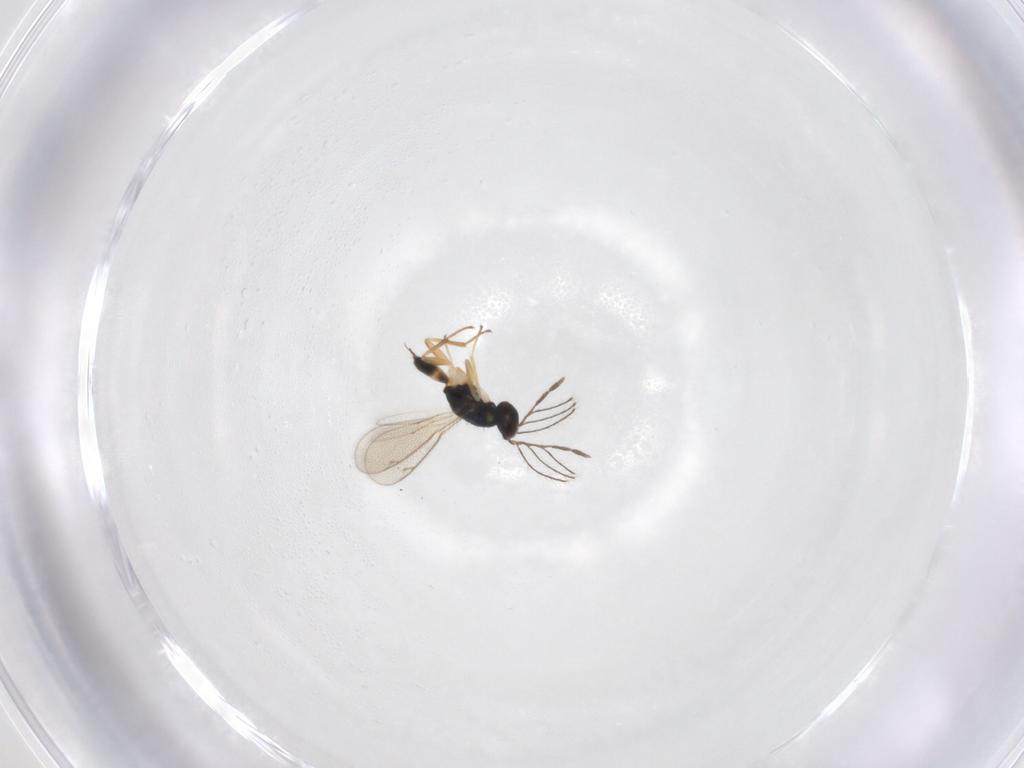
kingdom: Animalia
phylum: Arthropoda
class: Insecta
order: Hymenoptera
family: Eulophidae
